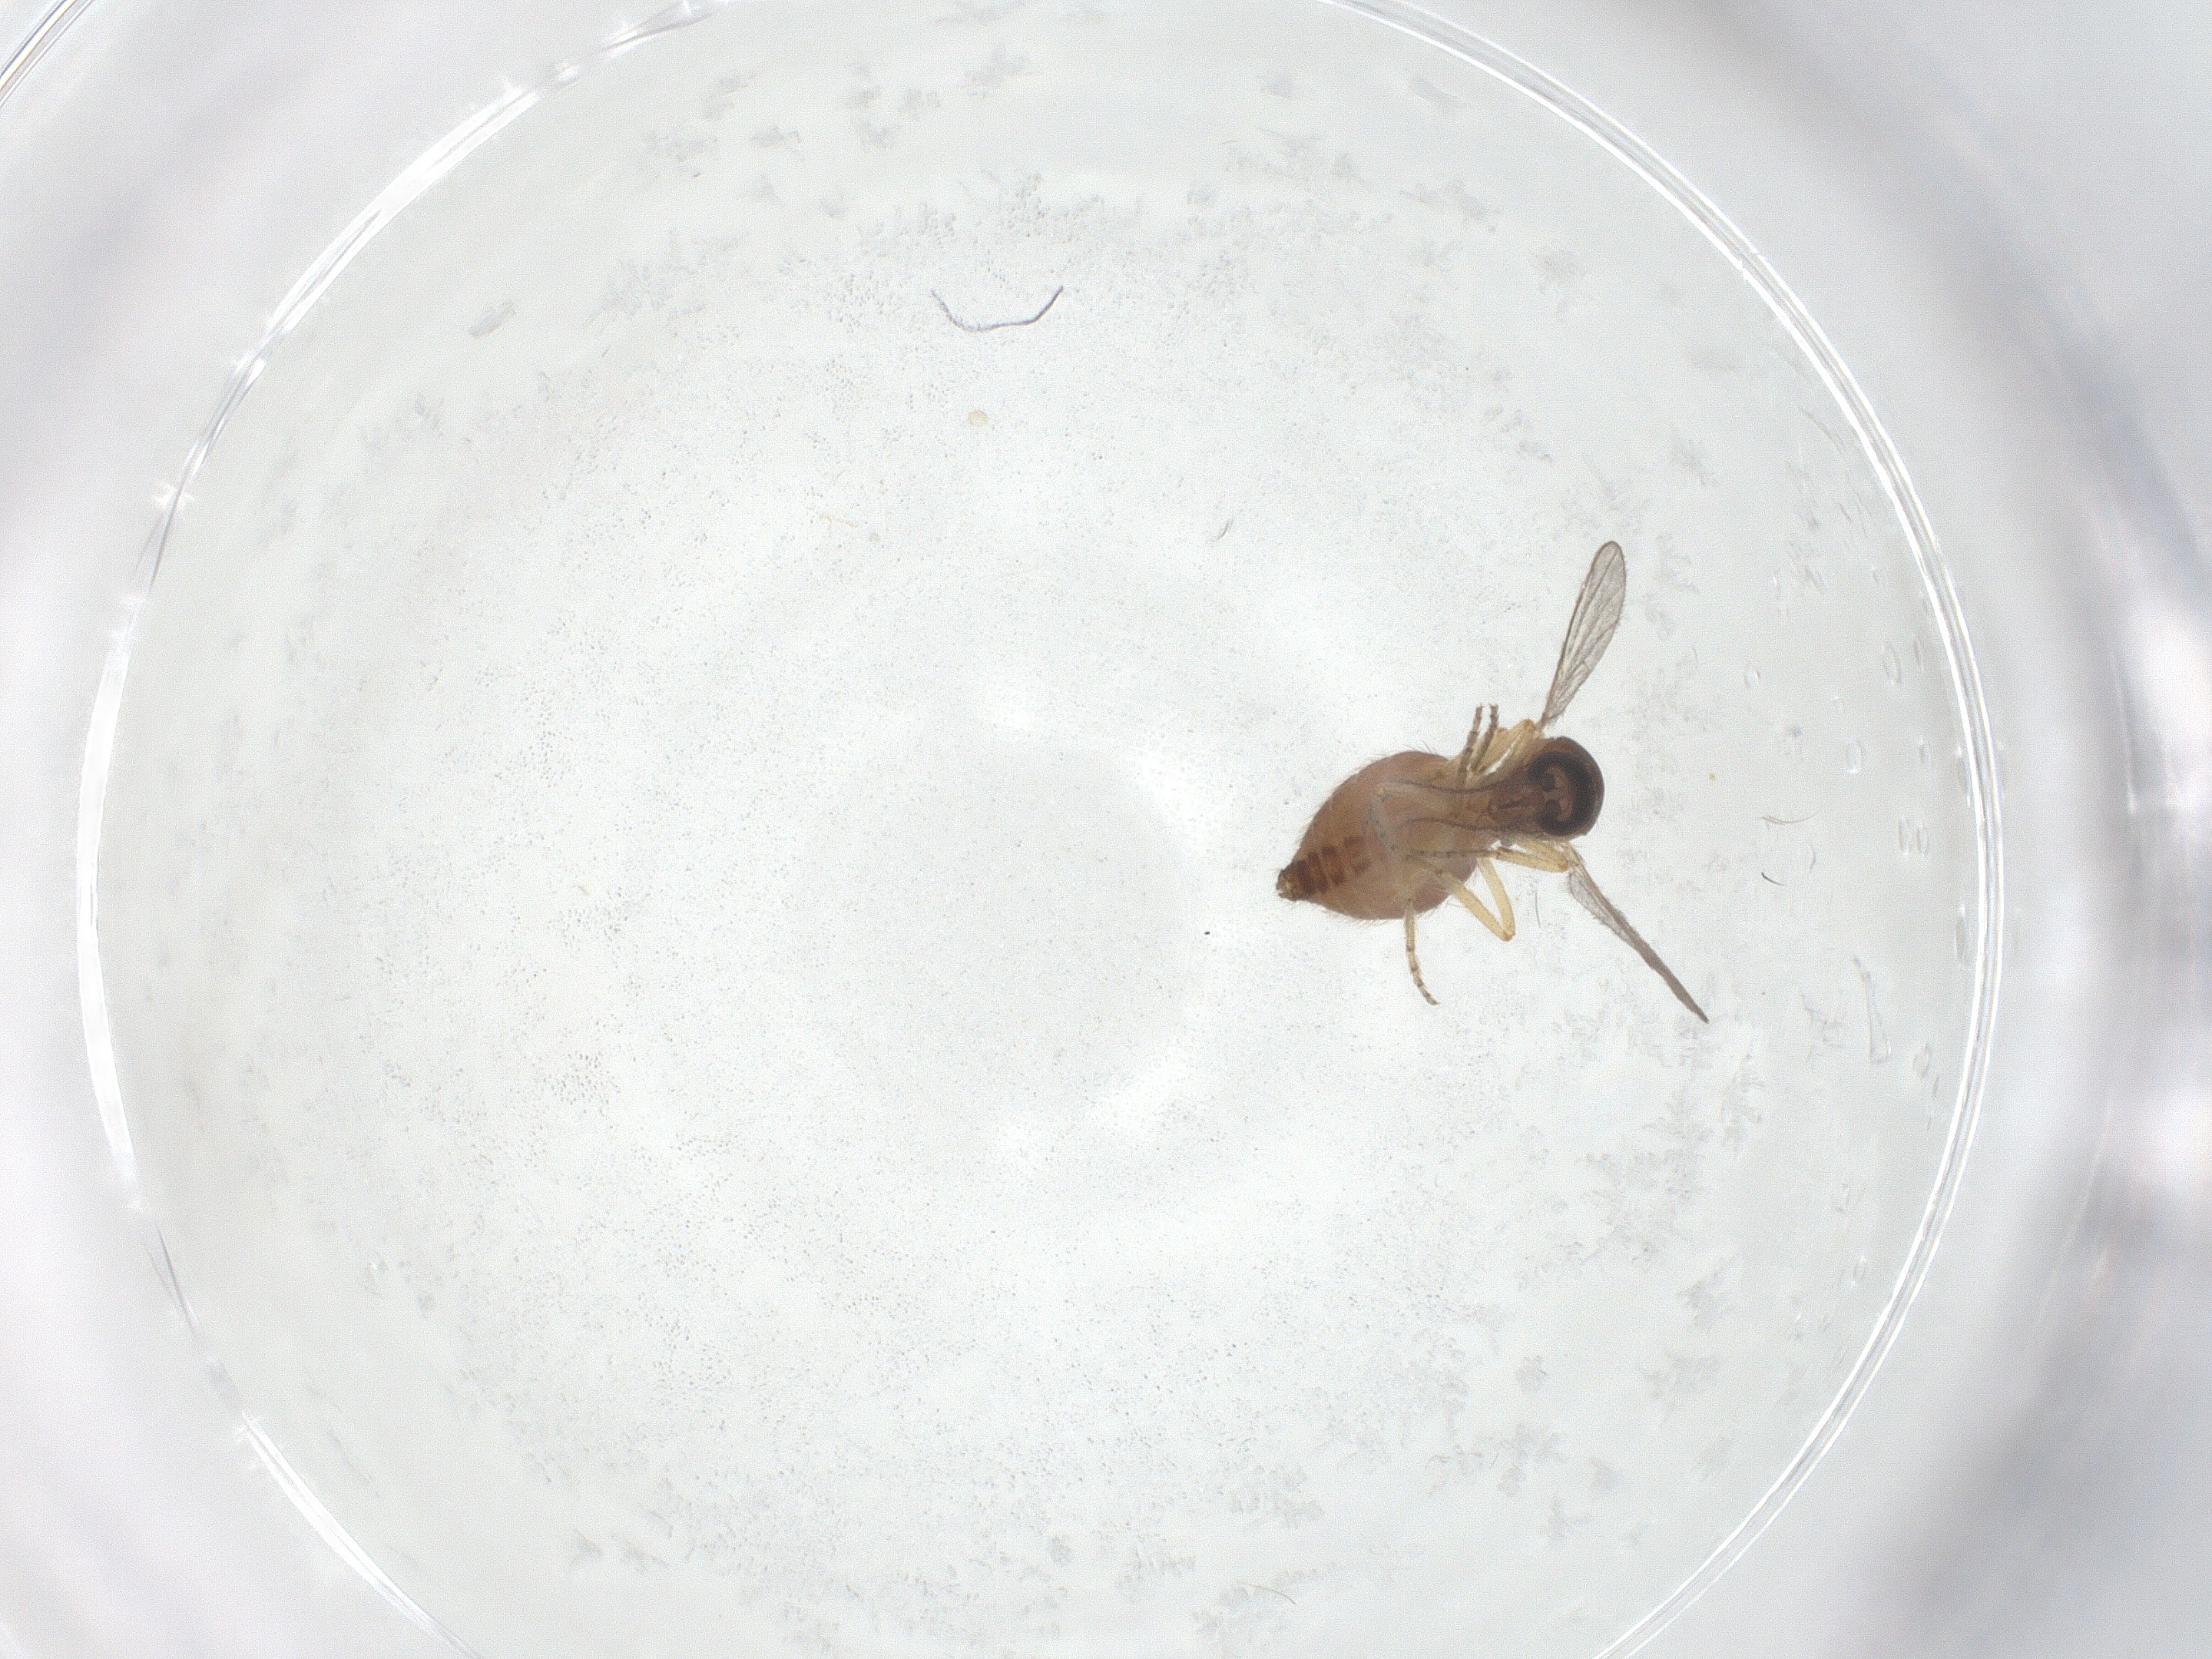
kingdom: Animalia
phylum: Arthropoda
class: Insecta
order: Diptera
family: Ceratopogonidae
